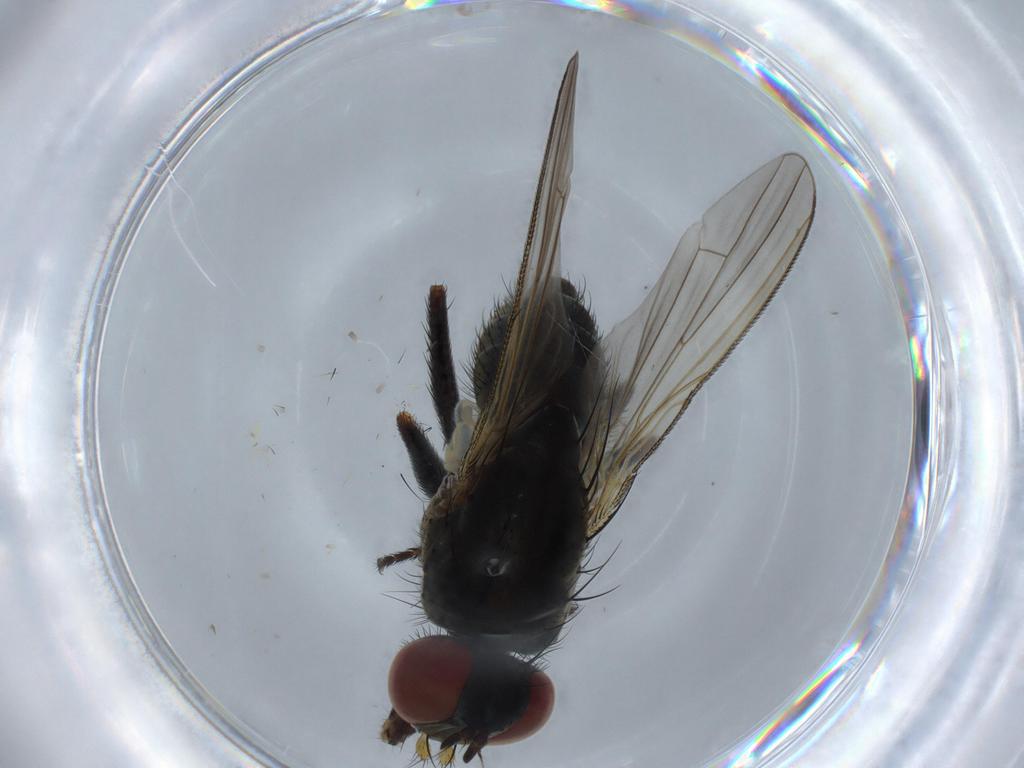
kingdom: Animalia
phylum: Arthropoda
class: Insecta
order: Diptera
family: Muscidae
